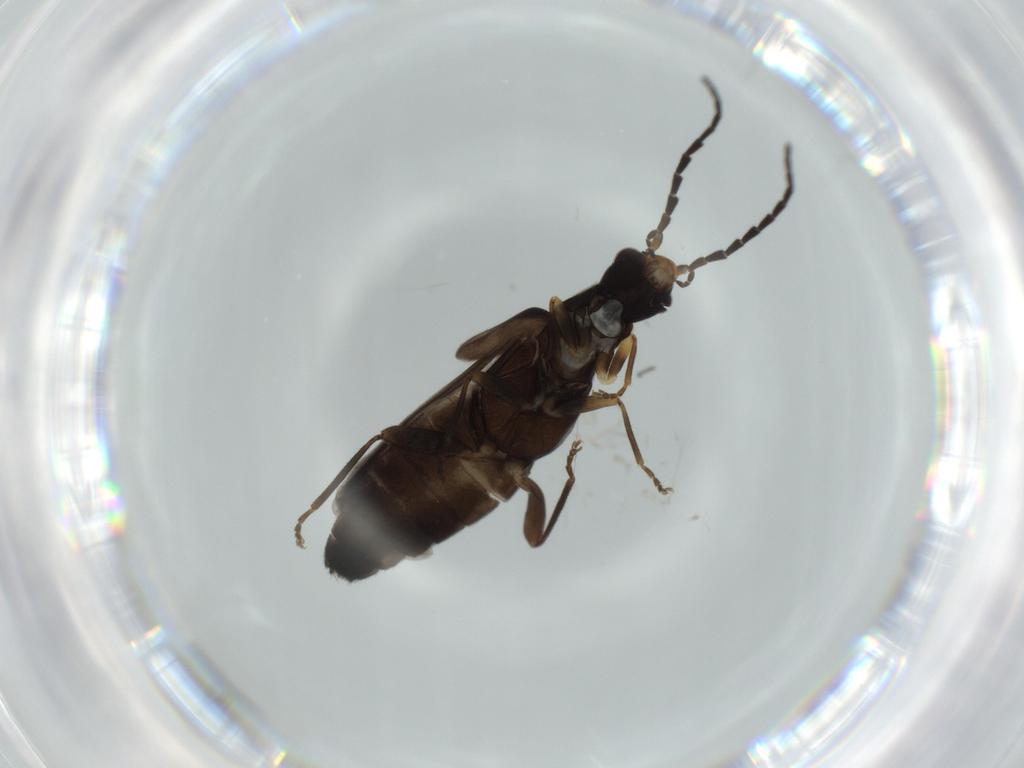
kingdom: Animalia
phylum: Arthropoda
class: Insecta
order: Coleoptera
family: Cantharidae
